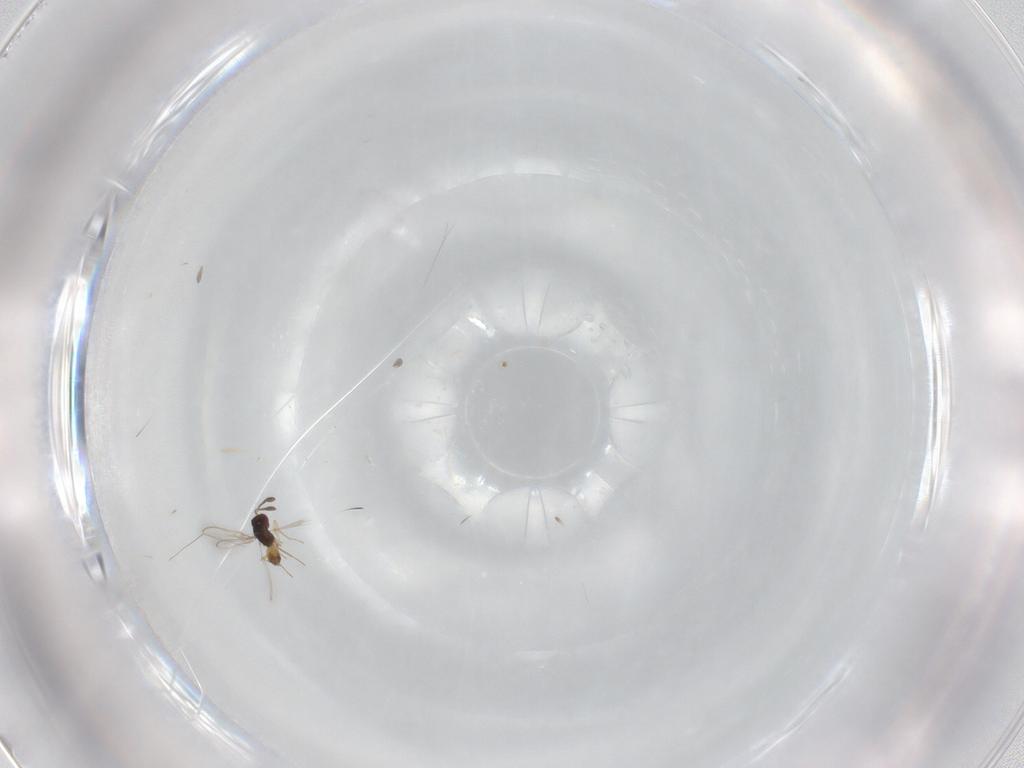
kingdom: Animalia
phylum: Arthropoda
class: Insecta
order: Hymenoptera
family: Mymaridae
